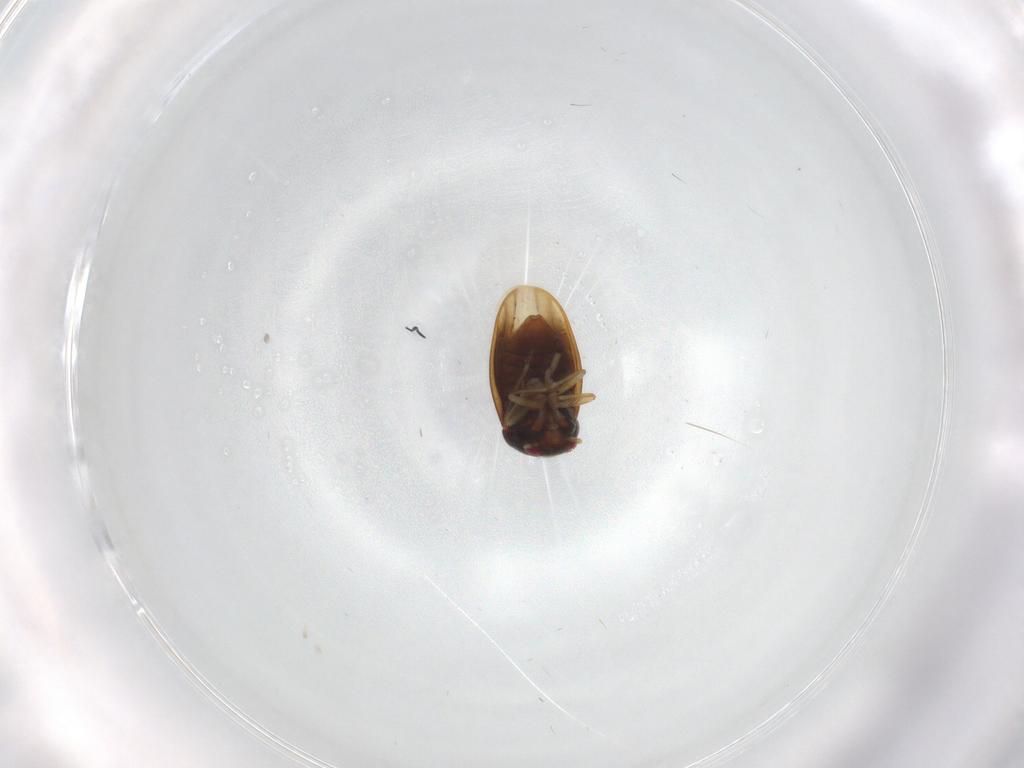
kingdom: Animalia
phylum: Arthropoda
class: Insecta
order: Hemiptera
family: Schizopteridae
